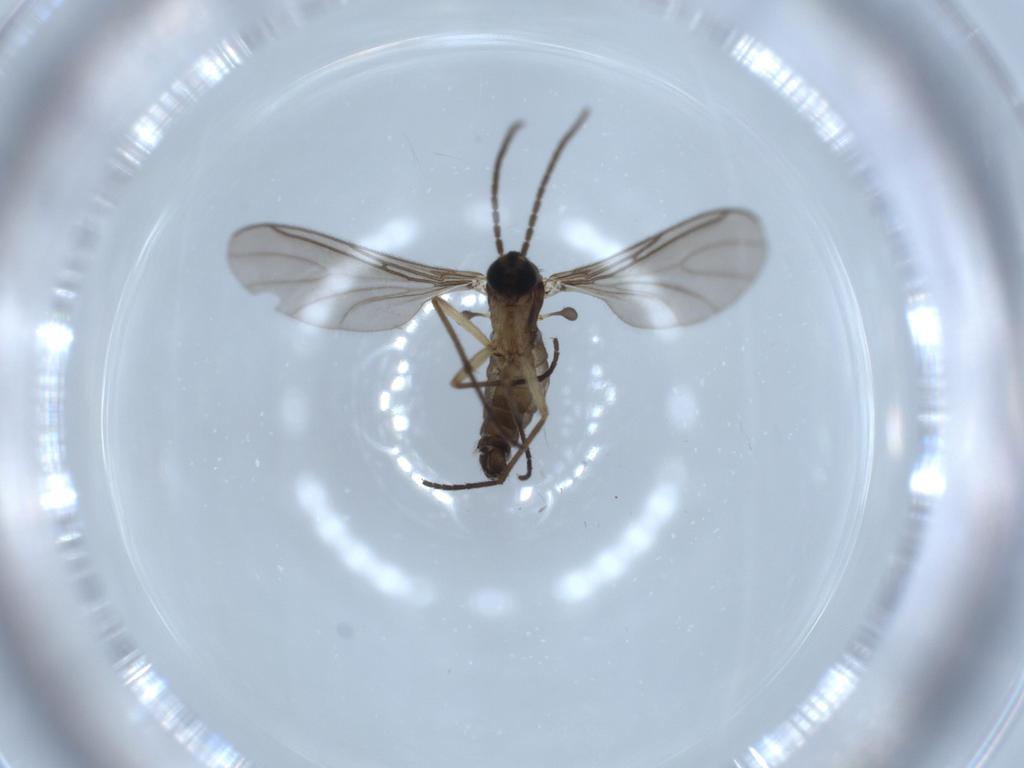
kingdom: Animalia
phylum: Arthropoda
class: Insecta
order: Diptera
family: Sciaridae
